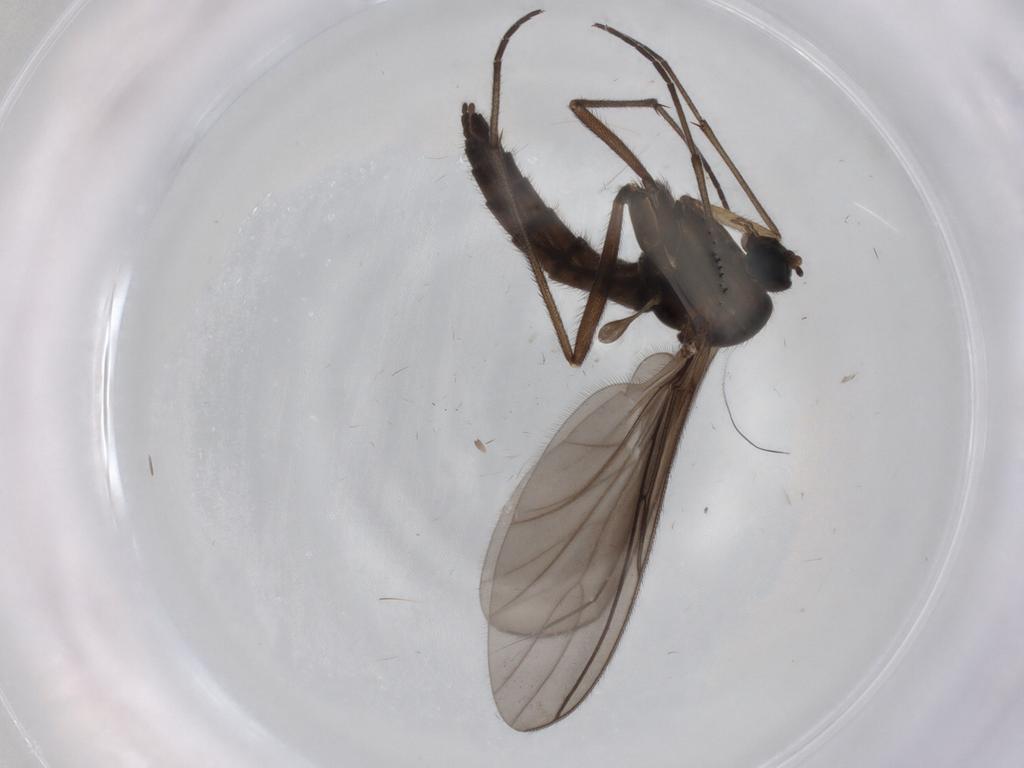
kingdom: Animalia
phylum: Arthropoda
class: Insecta
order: Diptera
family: Sciaridae
